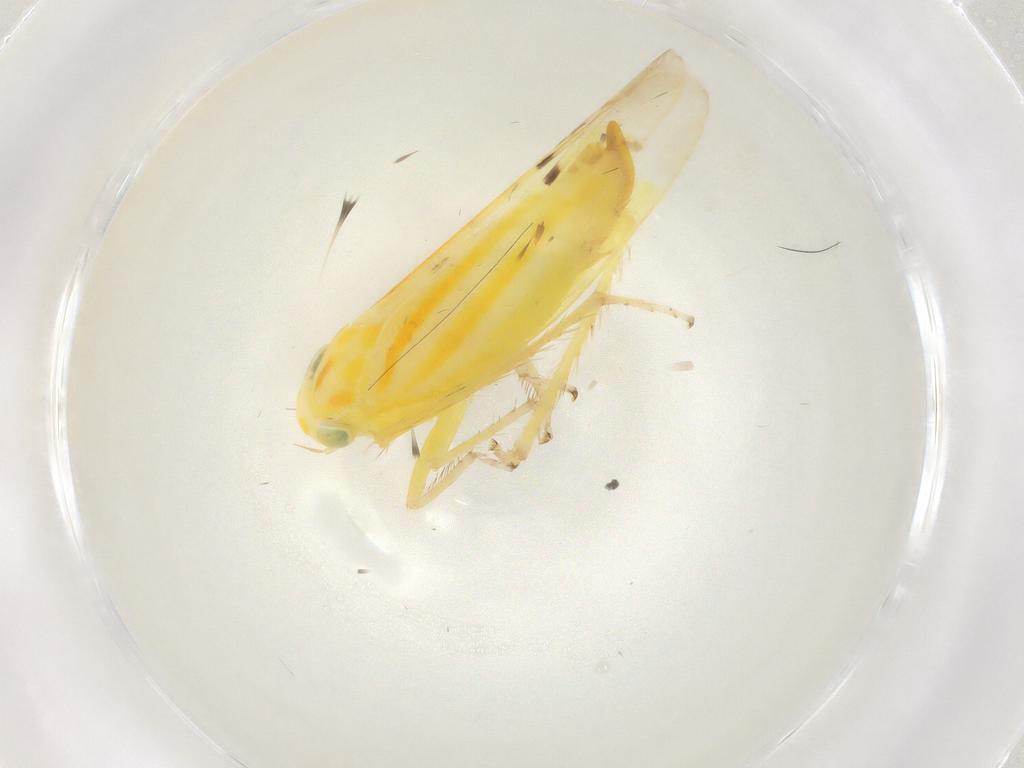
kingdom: Animalia
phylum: Arthropoda
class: Insecta
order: Hemiptera
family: Cicadellidae
